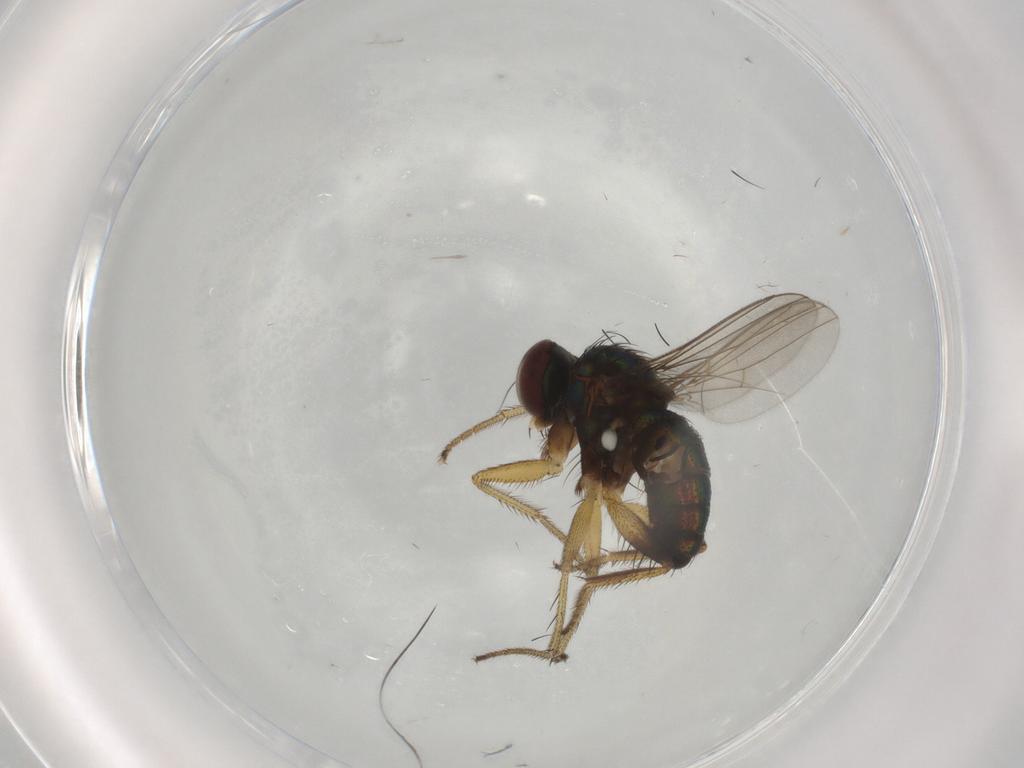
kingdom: Animalia
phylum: Arthropoda
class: Insecta
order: Diptera
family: Dolichopodidae
